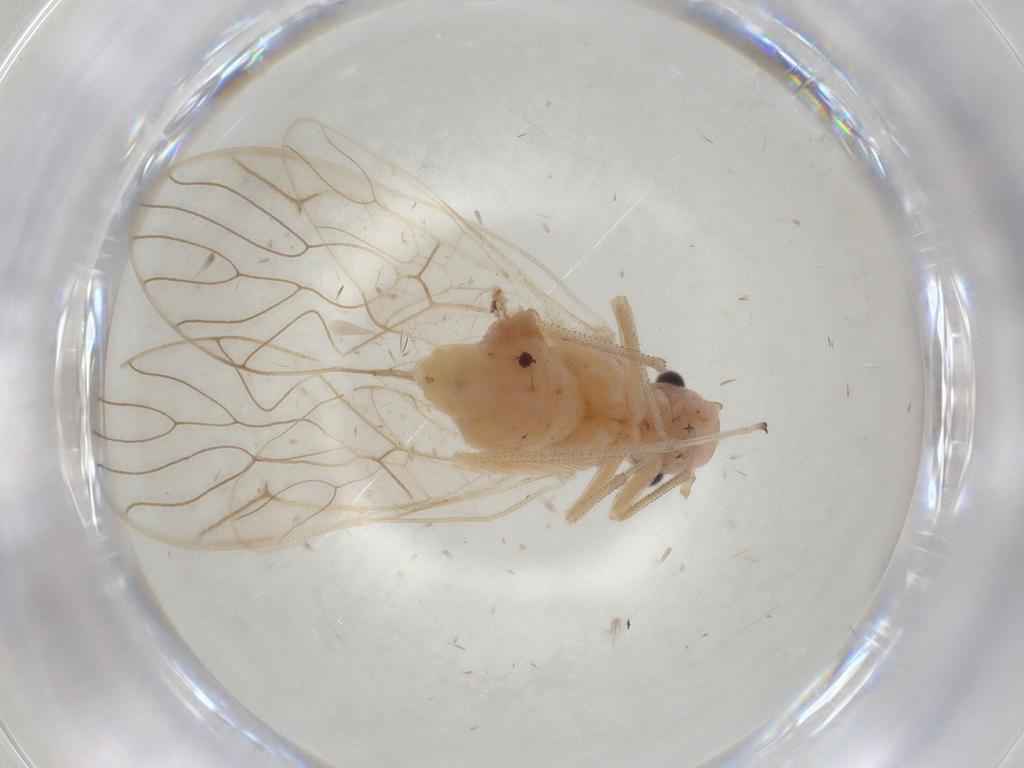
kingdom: Animalia
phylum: Arthropoda
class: Insecta
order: Psocodea
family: Amphipsocidae
